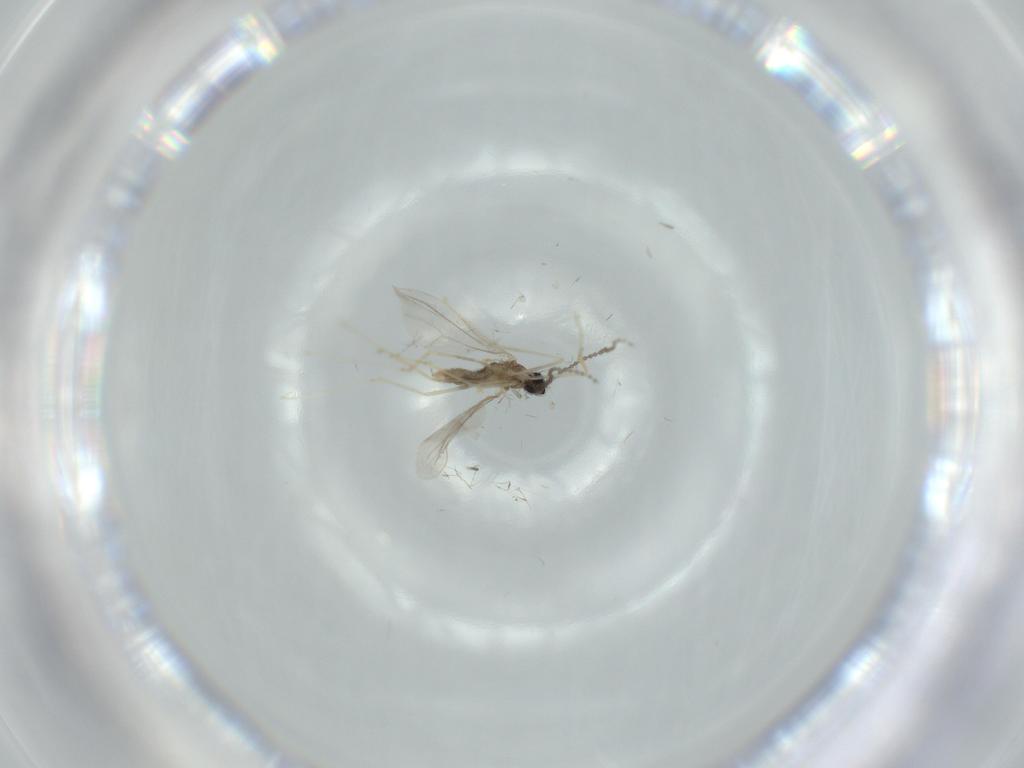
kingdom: Animalia
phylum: Arthropoda
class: Insecta
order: Diptera
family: Cecidomyiidae
